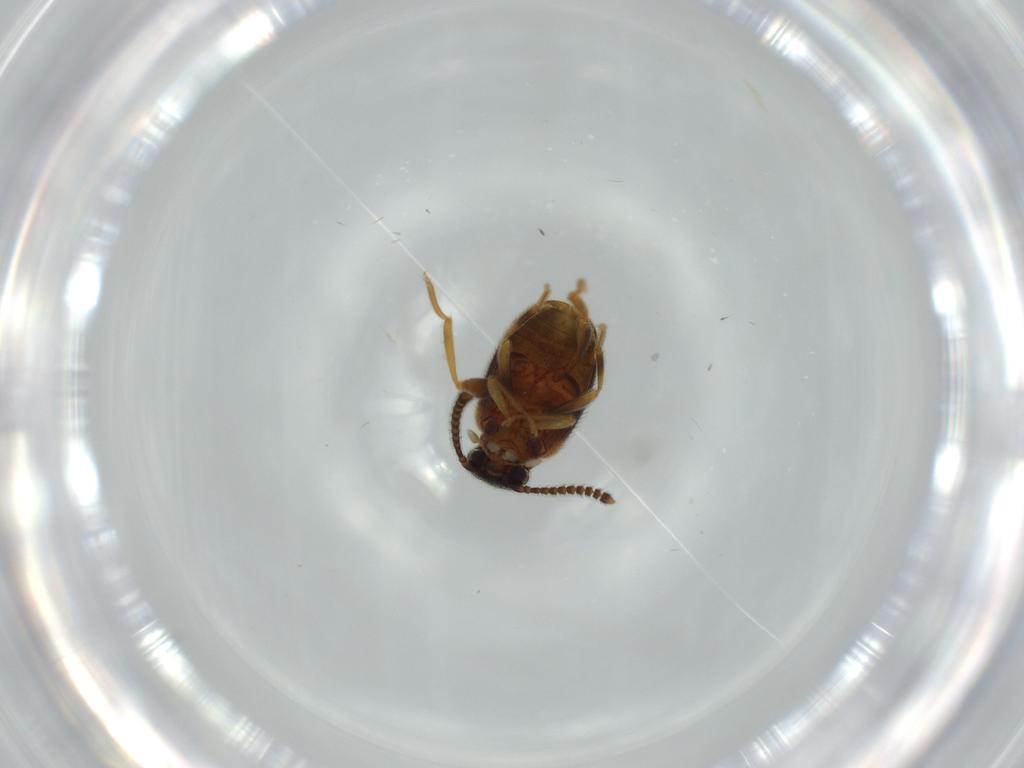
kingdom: Animalia
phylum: Arthropoda
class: Insecta
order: Coleoptera
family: Aderidae
